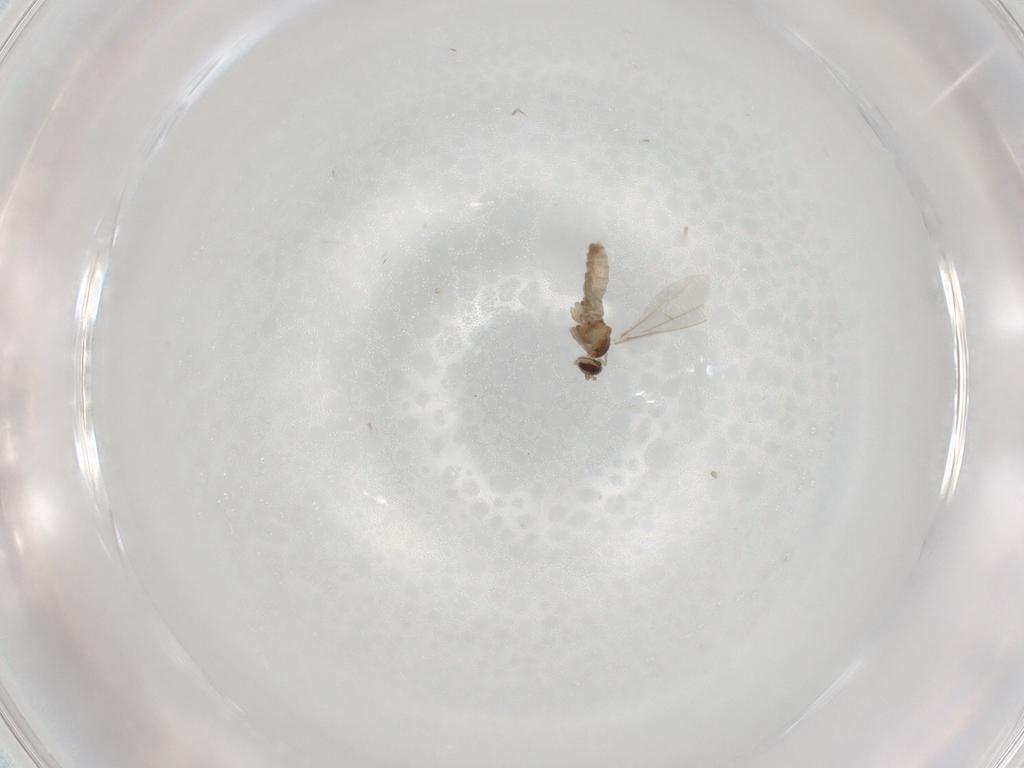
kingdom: Animalia
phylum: Arthropoda
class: Insecta
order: Diptera
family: Cecidomyiidae
